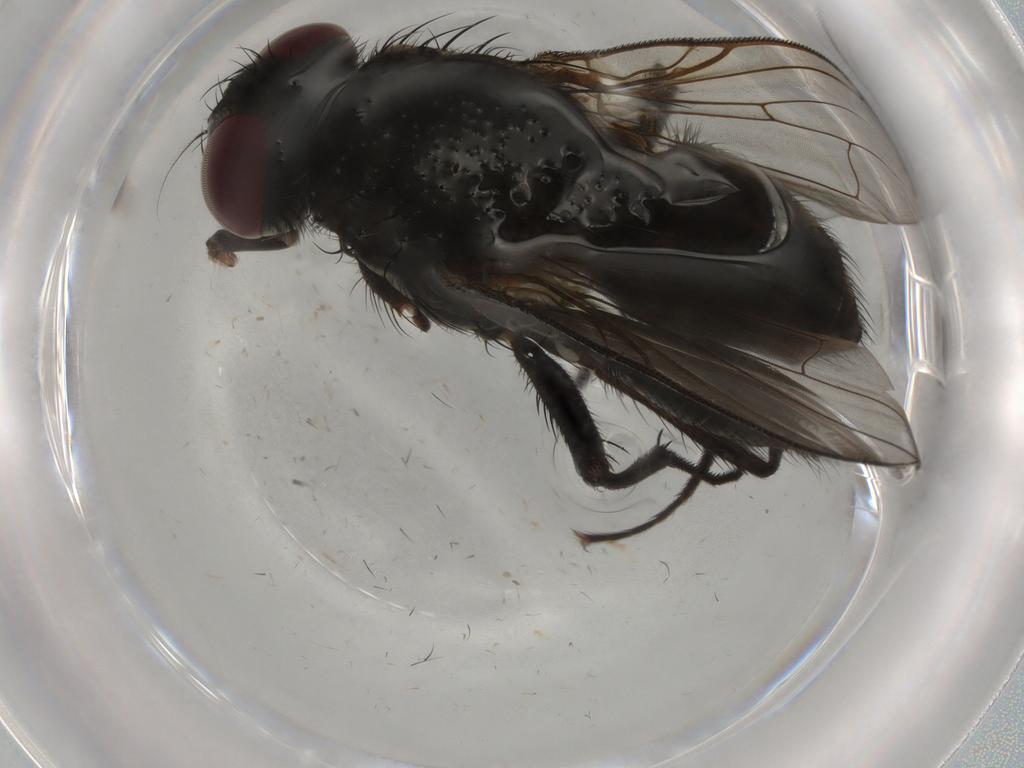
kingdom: Animalia
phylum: Arthropoda
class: Insecta
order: Diptera
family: Muscidae
